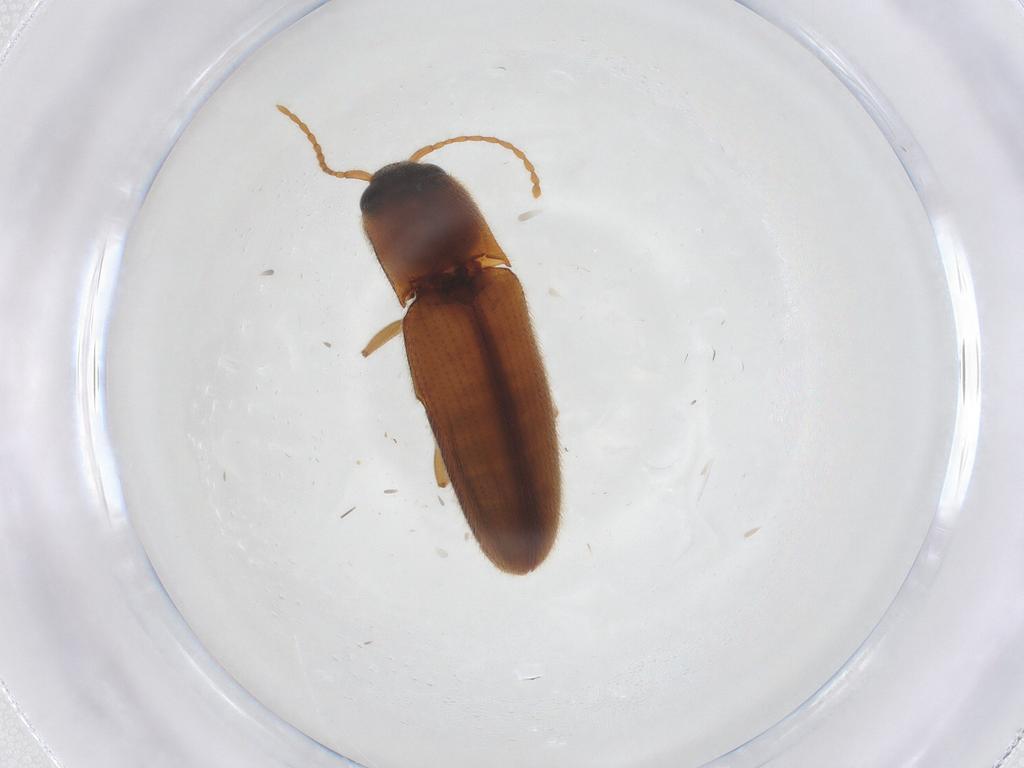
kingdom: Animalia
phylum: Arthropoda
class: Insecta
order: Coleoptera
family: Elateridae
